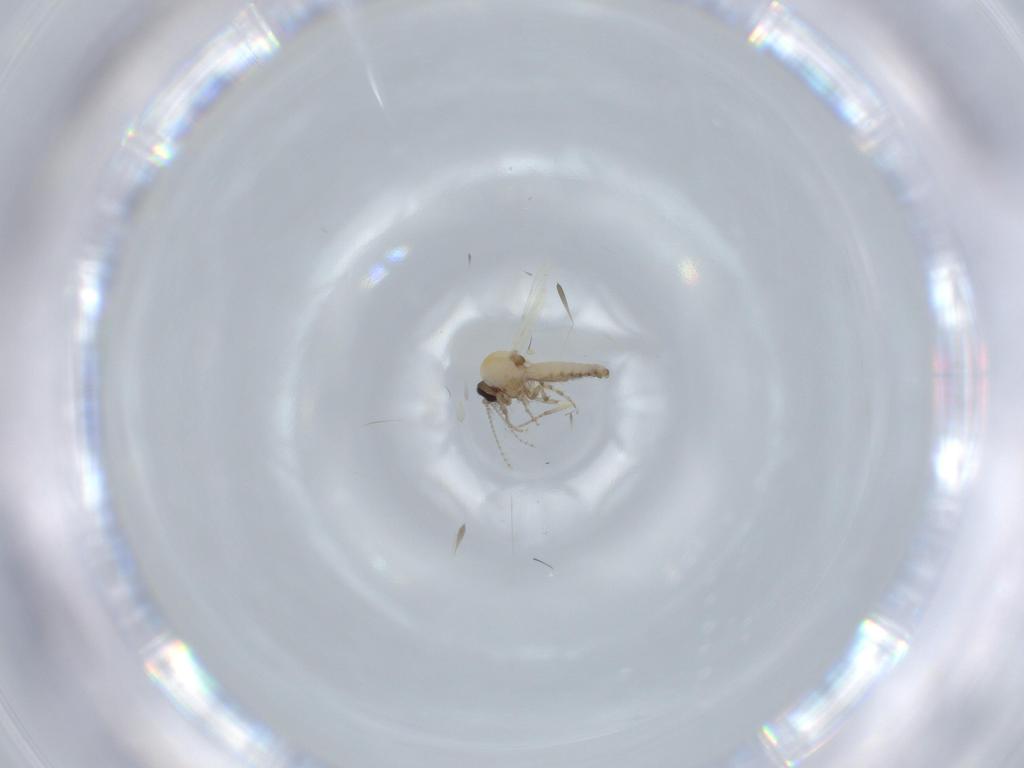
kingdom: Animalia
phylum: Arthropoda
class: Insecta
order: Diptera
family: Ceratopogonidae
